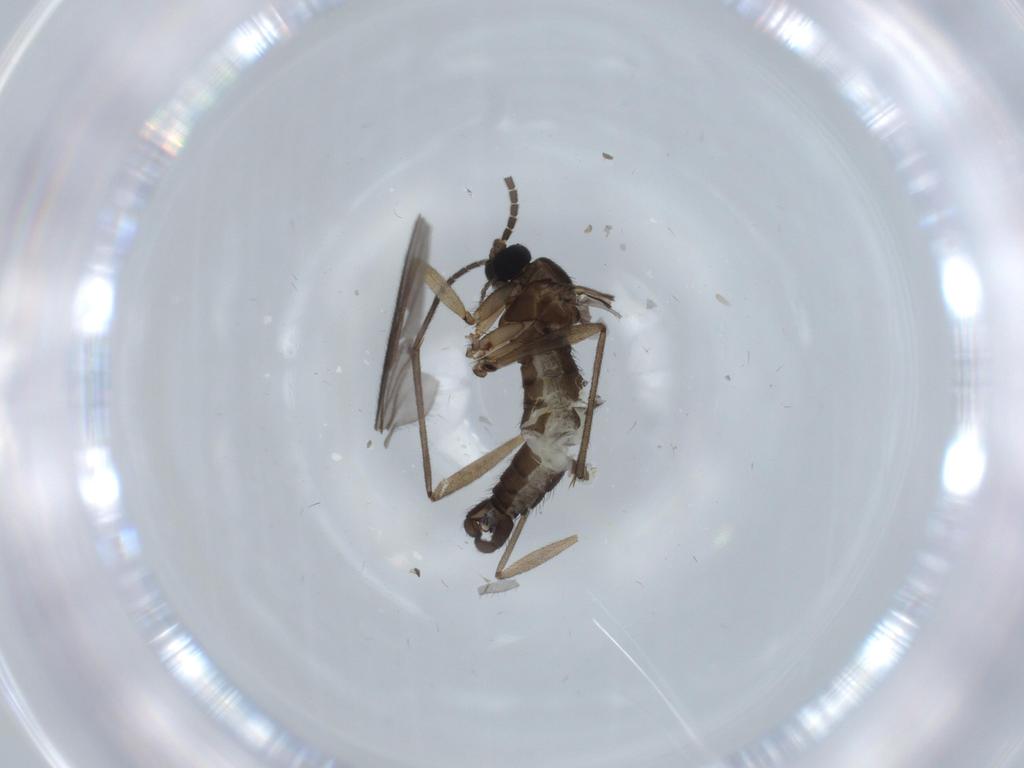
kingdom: Animalia
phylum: Arthropoda
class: Insecta
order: Diptera
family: Sciaridae
